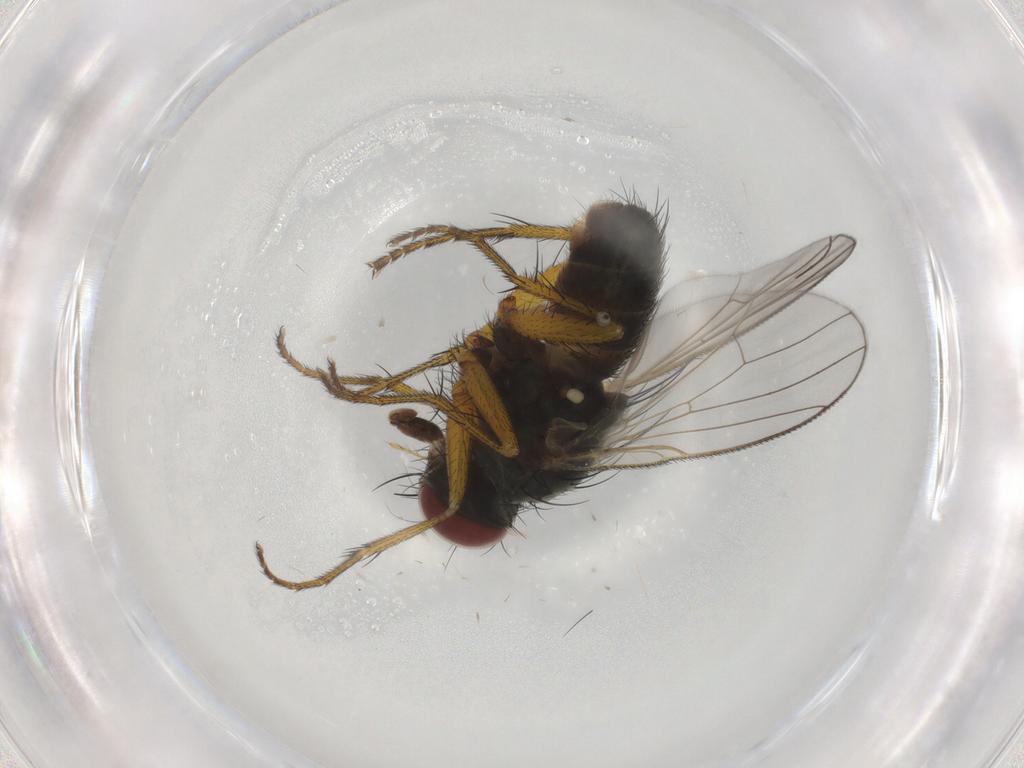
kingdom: Animalia
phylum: Arthropoda
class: Insecta
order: Diptera
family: Muscidae
